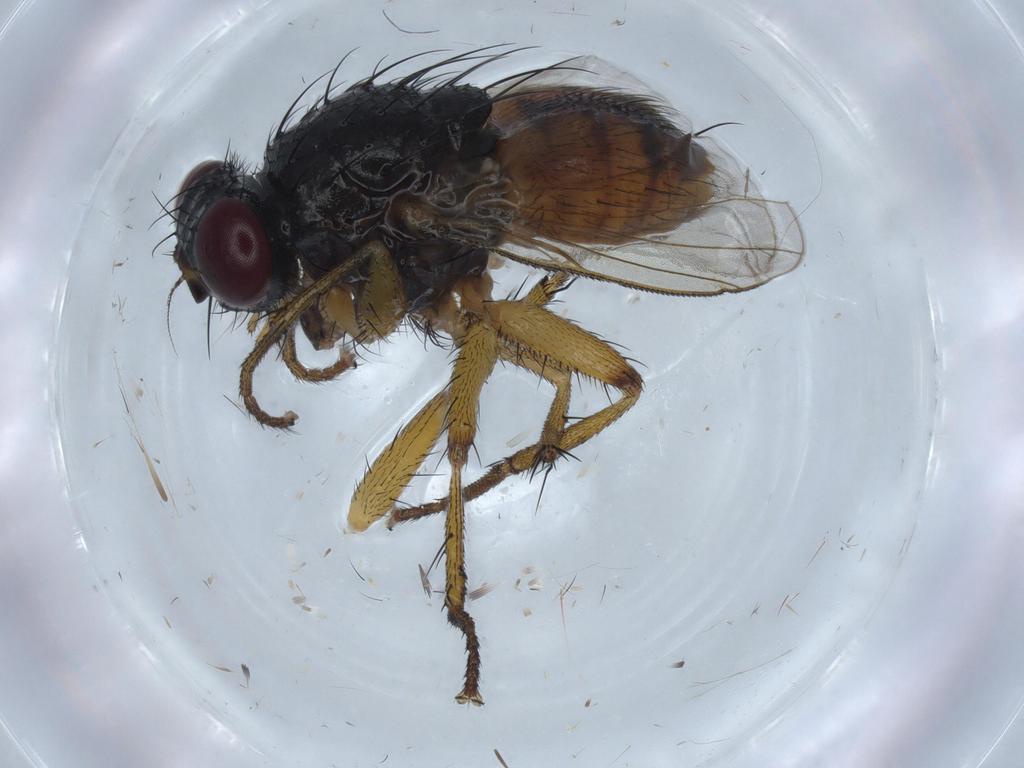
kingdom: Animalia
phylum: Arthropoda
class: Insecta
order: Diptera
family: Muscidae
